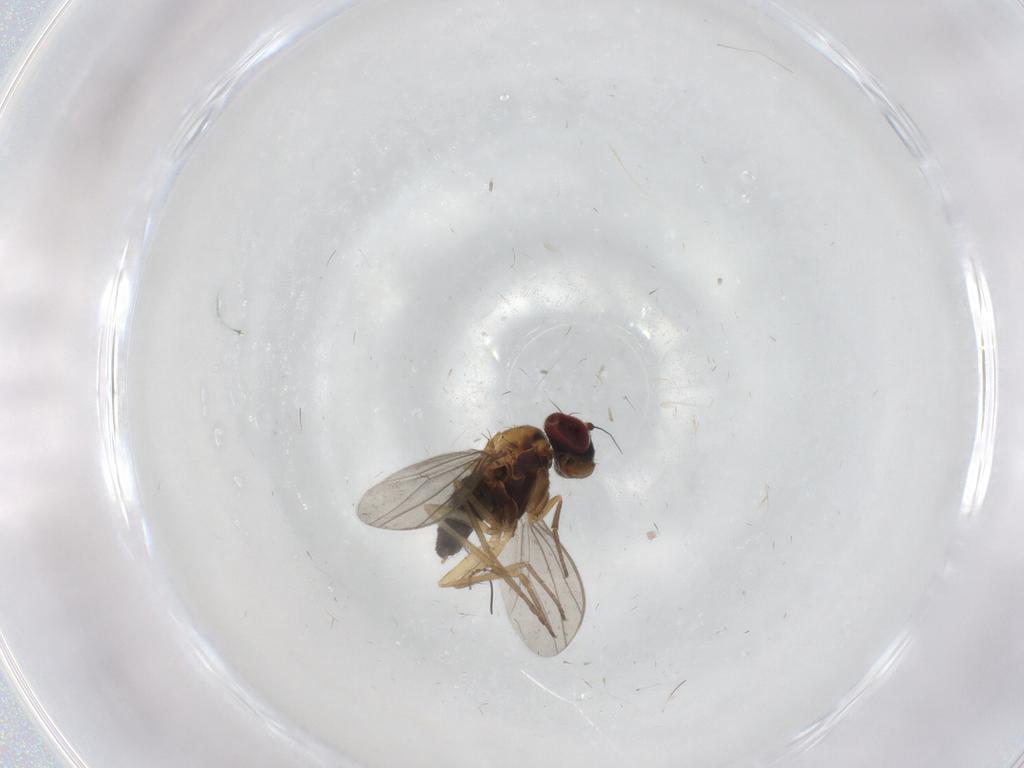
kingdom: Animalia
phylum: Arthropoda
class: Insecta
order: Diptera
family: Dolichopodidae
